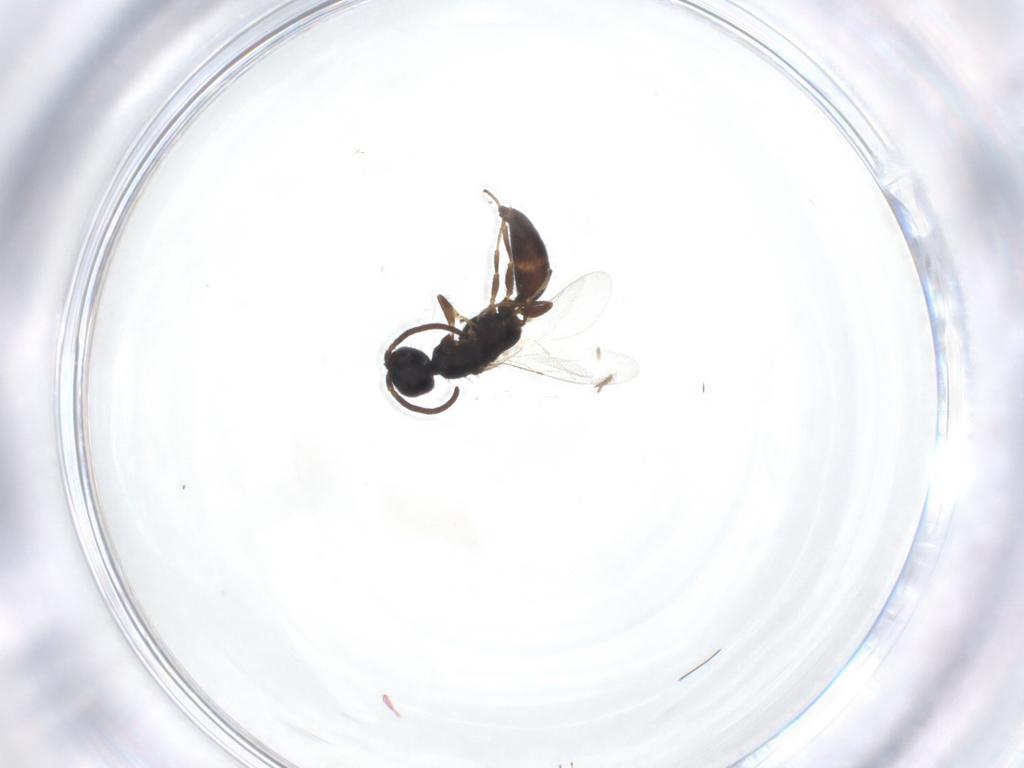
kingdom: Animalia
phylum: Arthropoda
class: Insecta
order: Hymenoptera
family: Bethylidae
